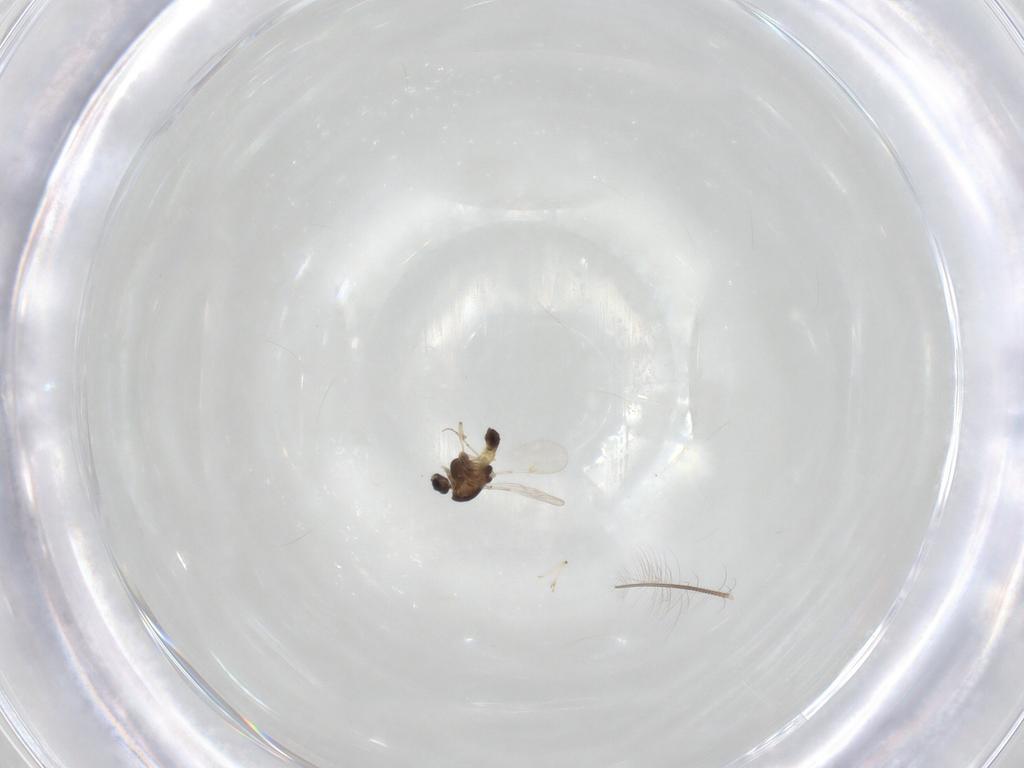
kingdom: Animalia
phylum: Arthropoda
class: Insecta
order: Diptera
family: Chironomidae
